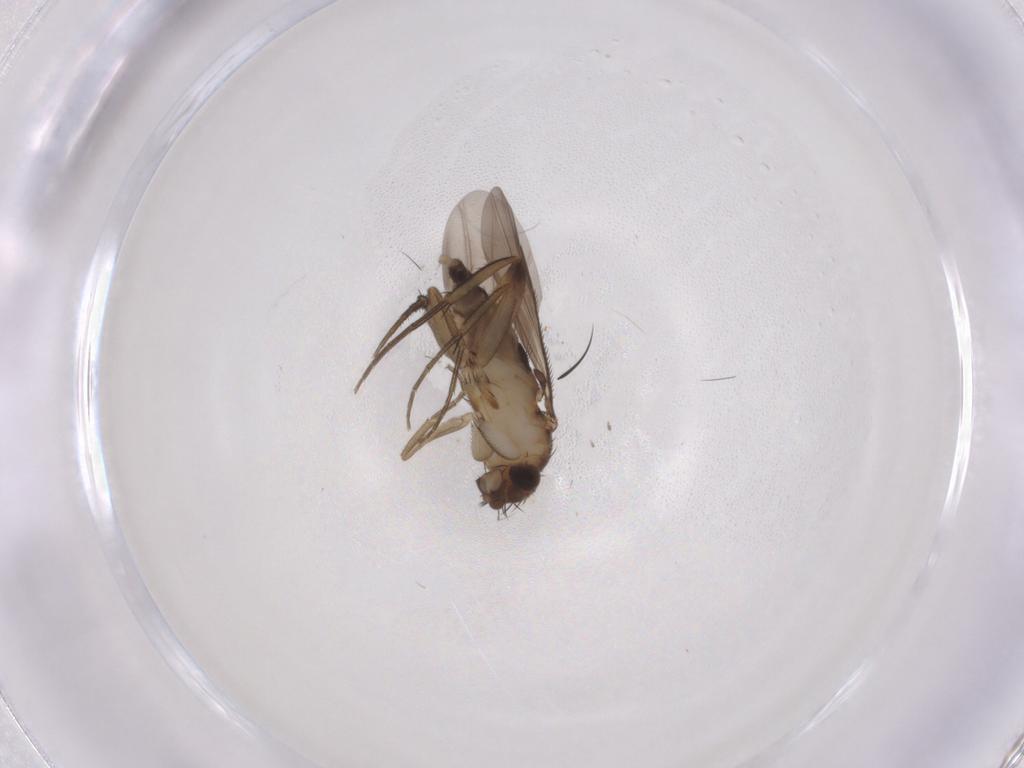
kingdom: Animalia
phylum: Arthropoda
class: Insecta
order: Diptera
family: Phoridae
